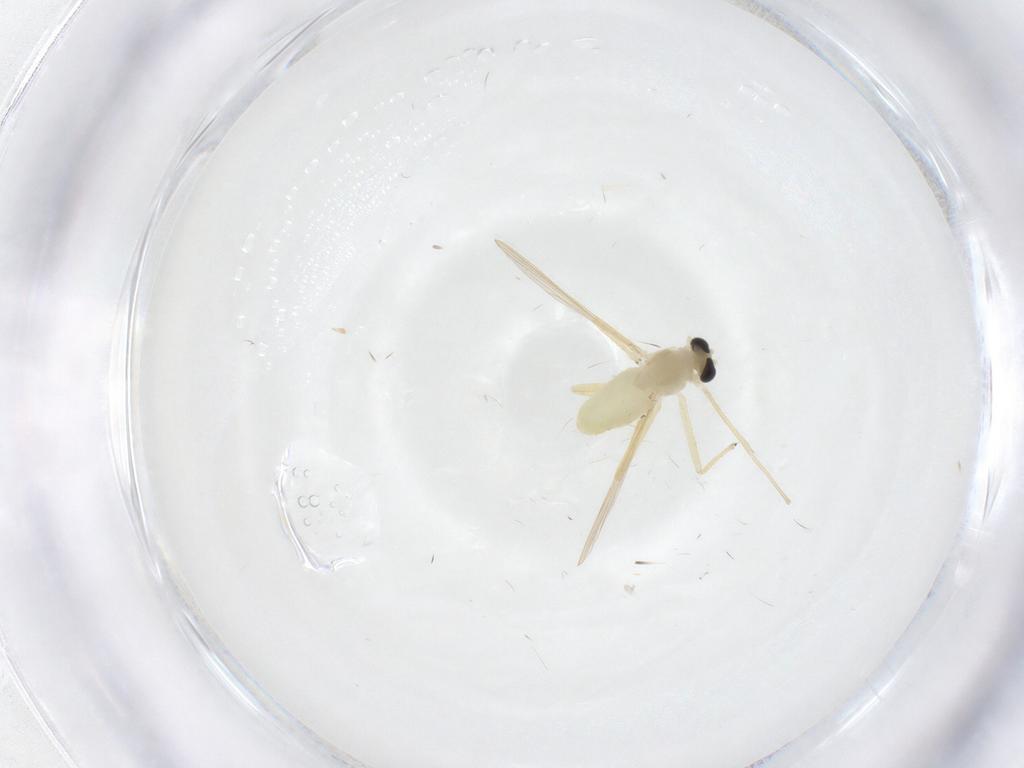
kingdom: Animalia
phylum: Arthropoda
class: Insecta
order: Diptera
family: Chironomidae
